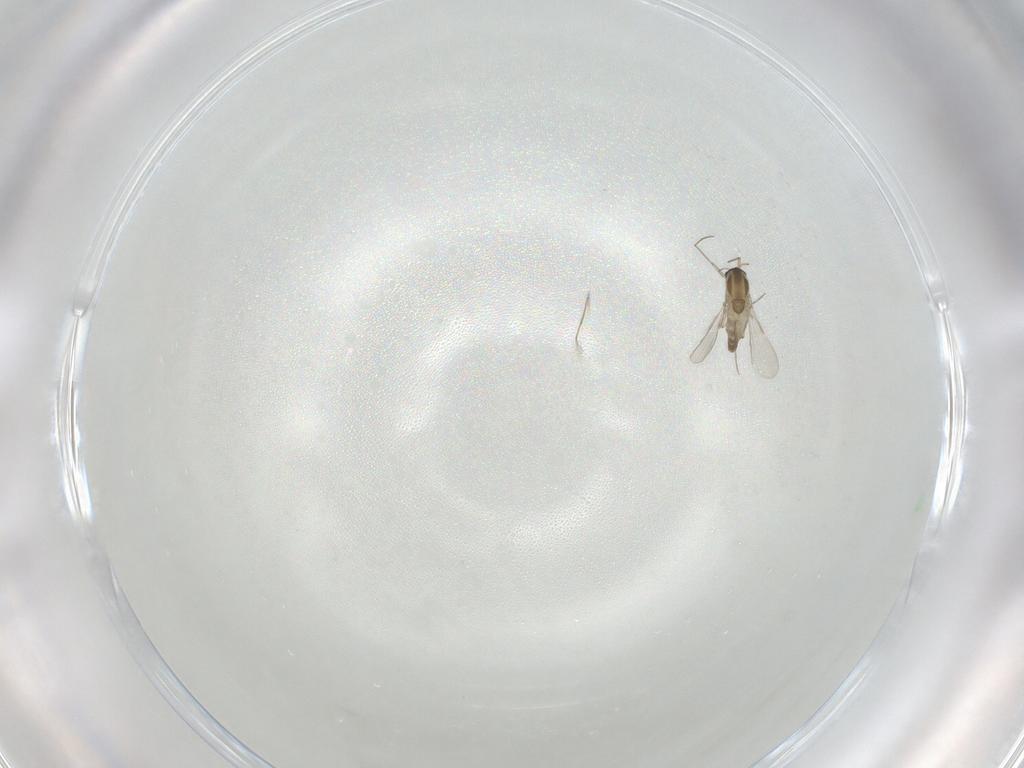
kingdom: Animalia
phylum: Arthropoda
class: Insecta
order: Diptera
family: Chironomidae
